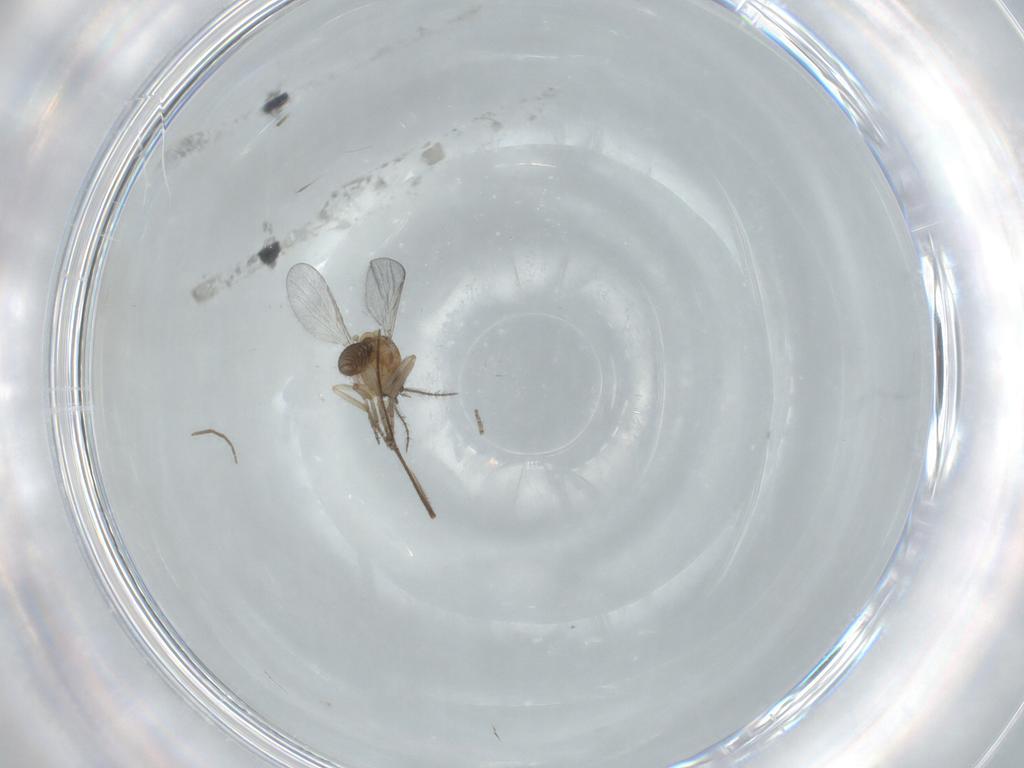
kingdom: Animalia
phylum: Arthropoda
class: Insecta
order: Diptera
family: Chironomidae
